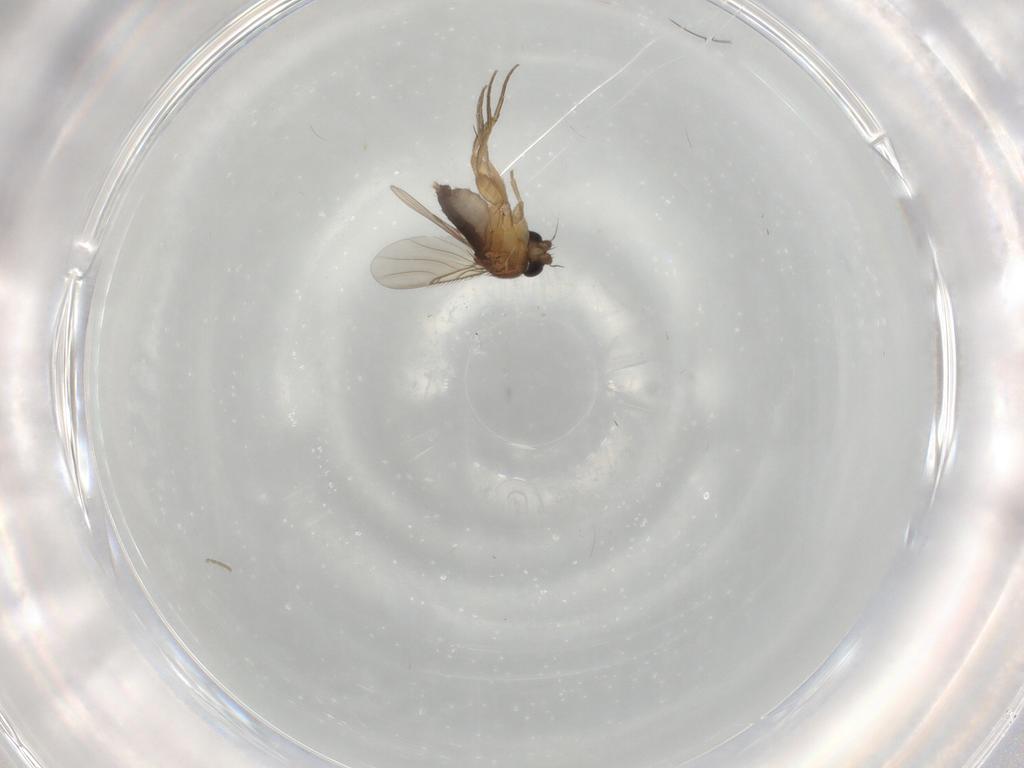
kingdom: Animalia
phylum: Arthropoda
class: Insecta
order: Diptera
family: Phoridae
